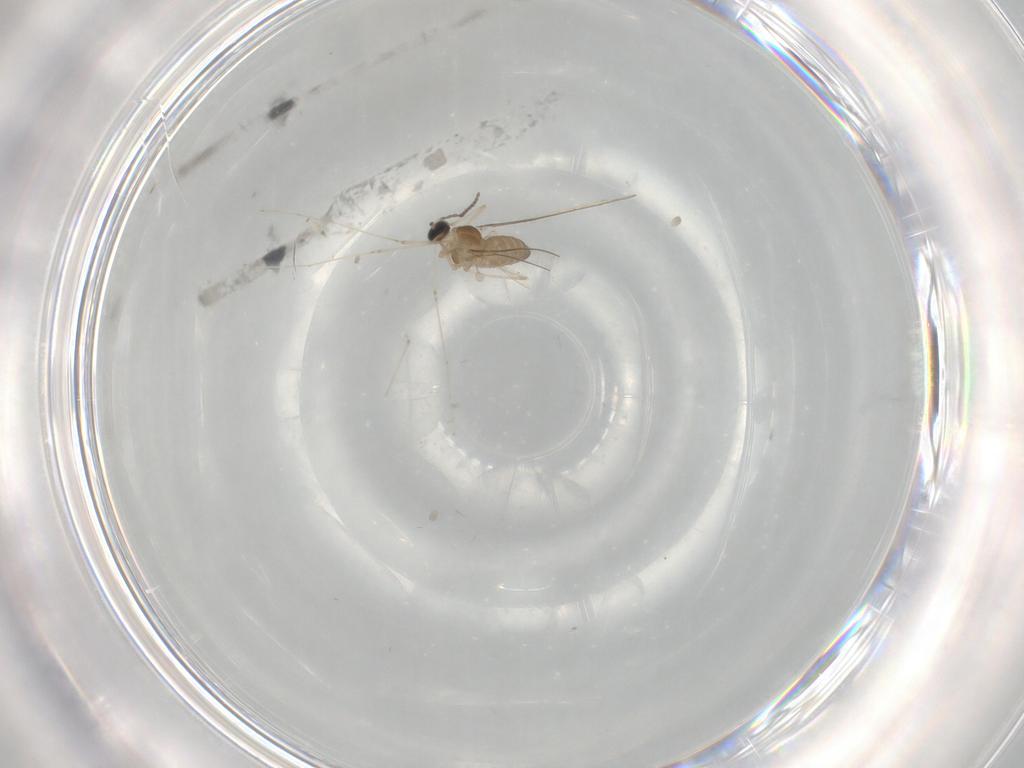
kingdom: Animalia
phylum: Arthropoda
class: Insecta
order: Diptera
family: Cecidomyiidae
